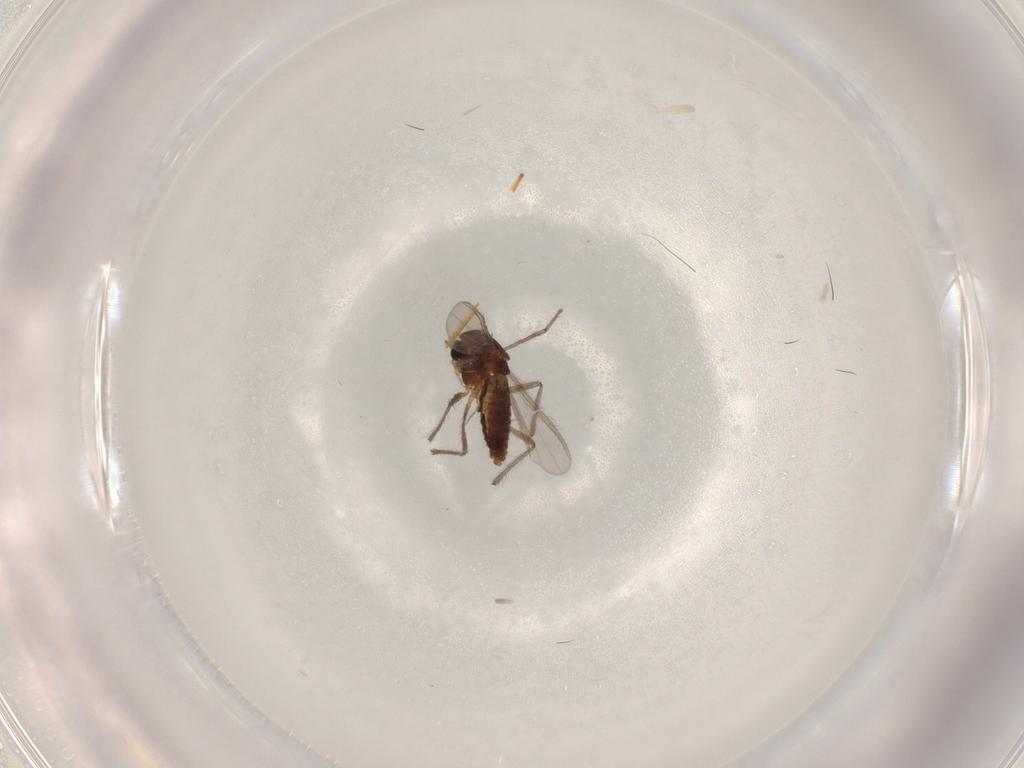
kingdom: Animalia
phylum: Arthropoda
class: Insecta
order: Diptera
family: Chironomidae
